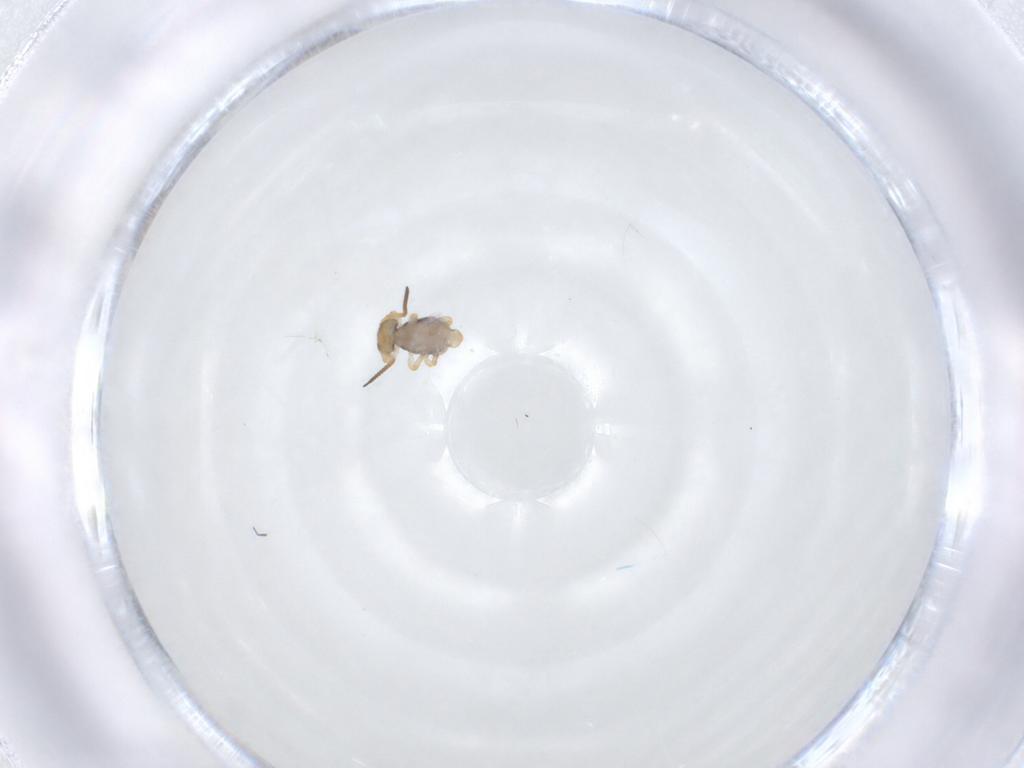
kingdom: Animalia
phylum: Arthropoda
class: Collembola
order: Symphypleona
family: Katiannidae
